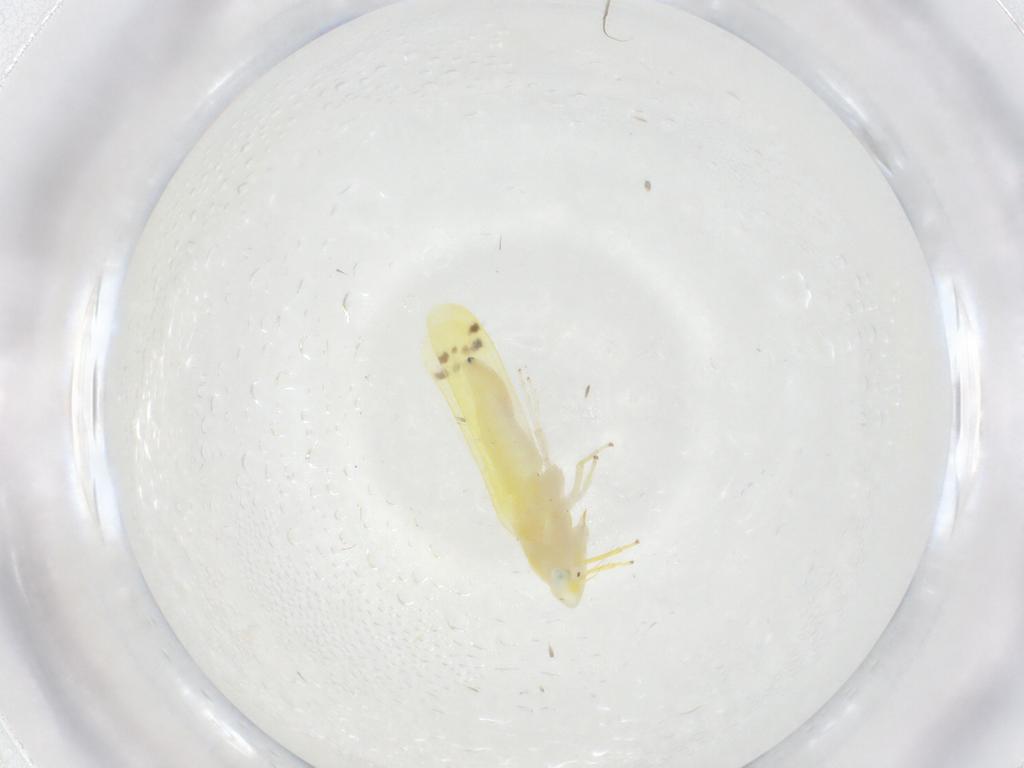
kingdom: Animalia
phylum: Arthropoda
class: Insecta
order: Hemiptera
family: Cicadellidae
